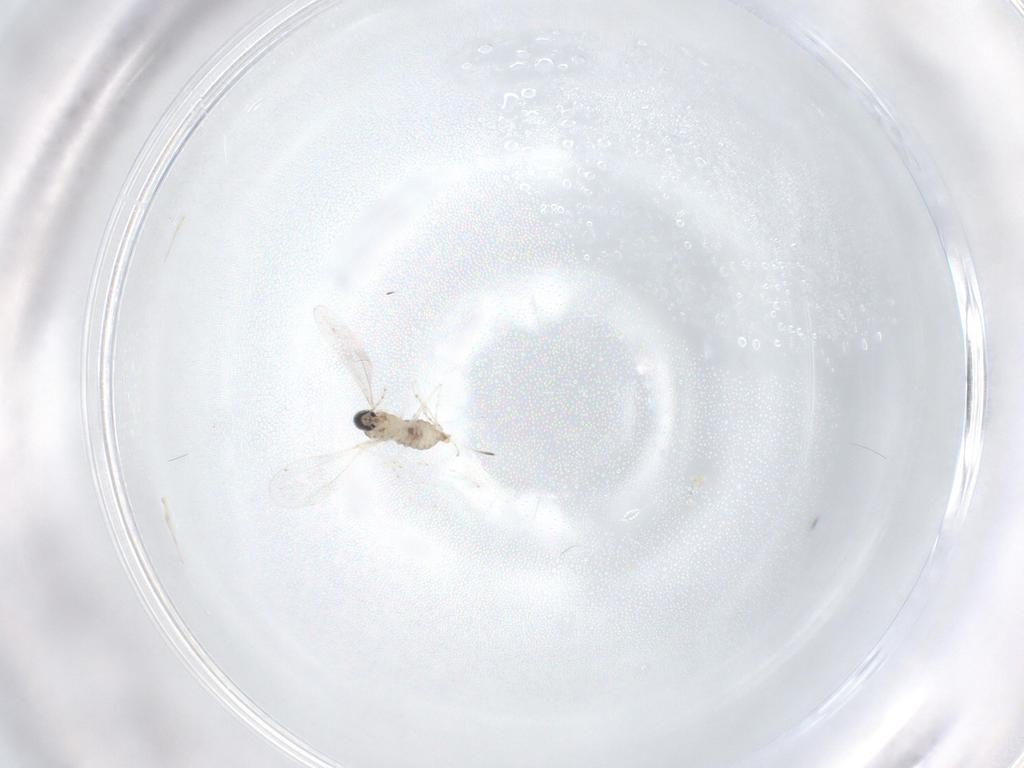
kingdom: Animalia
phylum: Arthropoda
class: Insecta
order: Diptera
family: Cecidomyiidae
